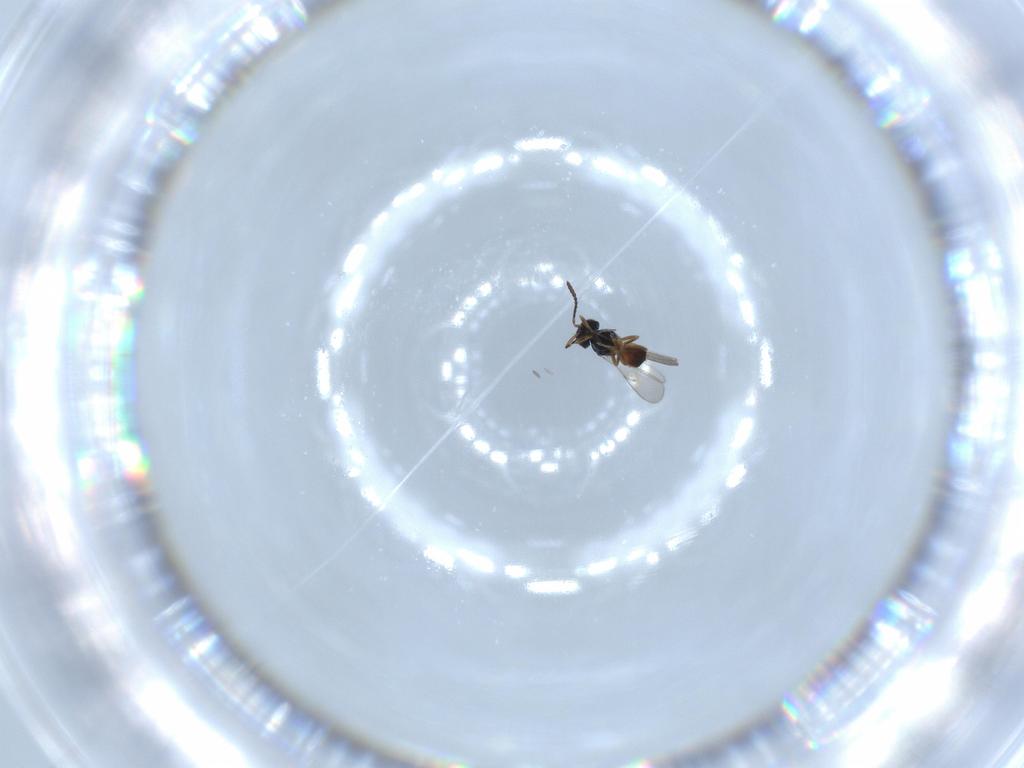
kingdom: Animalia
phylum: Arthropoda
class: Insecta
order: Hymenoptera
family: Scelionidae
